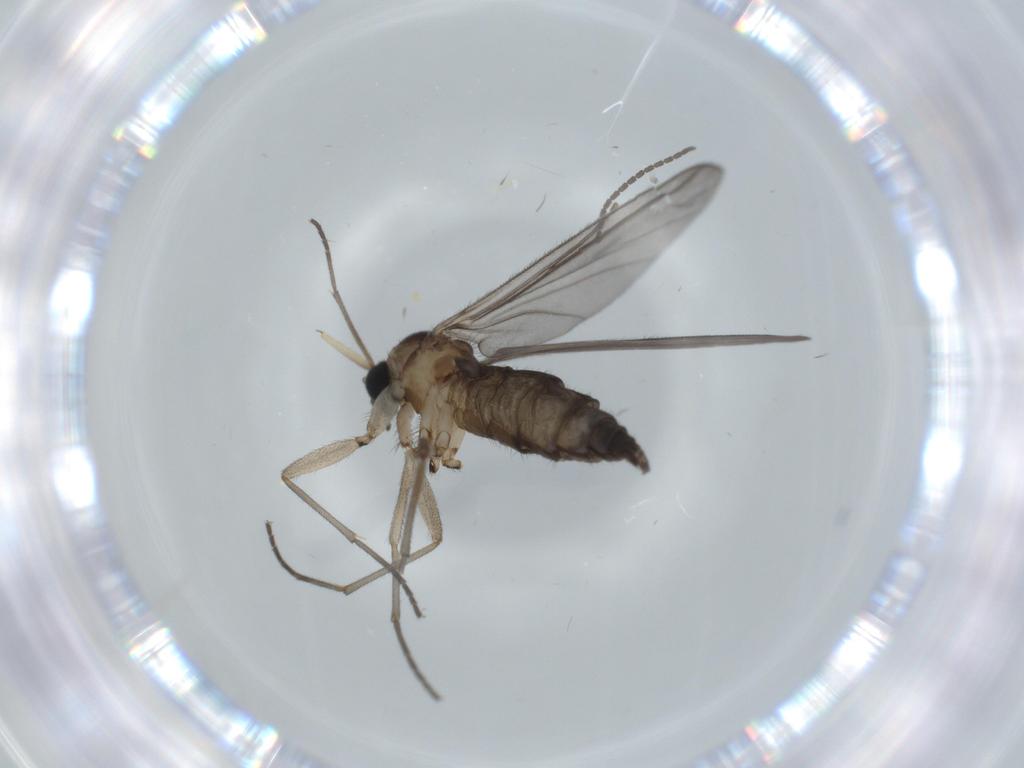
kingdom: Animalia
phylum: Arthropoda
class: Insecta
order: Diptera
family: Sciaridae
